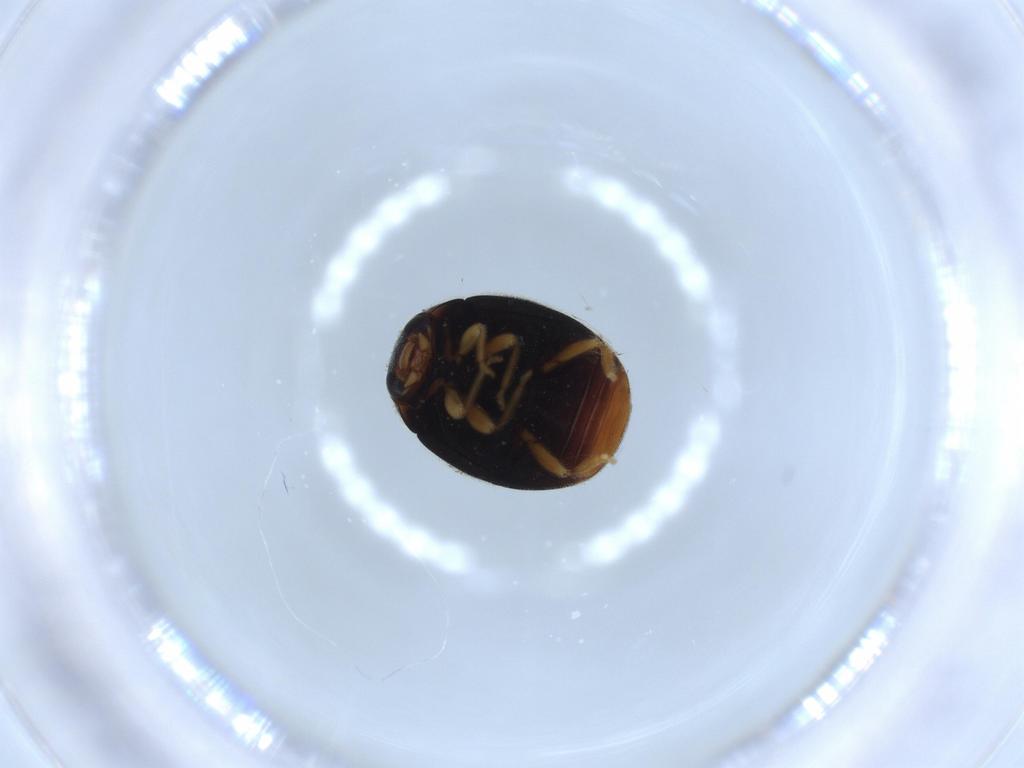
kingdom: Animalia
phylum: Arthropoda
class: Insecta
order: Coleoptera
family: Coccinellidae
